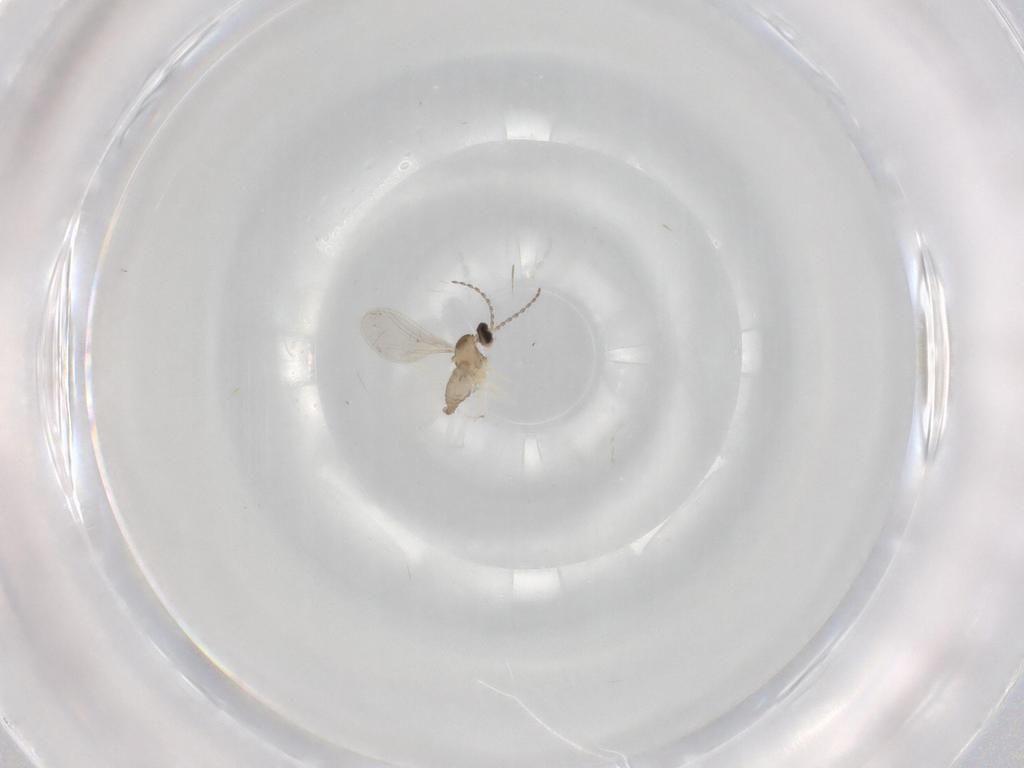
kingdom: Animalia
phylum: Arthropoda
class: Insecta
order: Diptera
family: Cecidomyiidae
